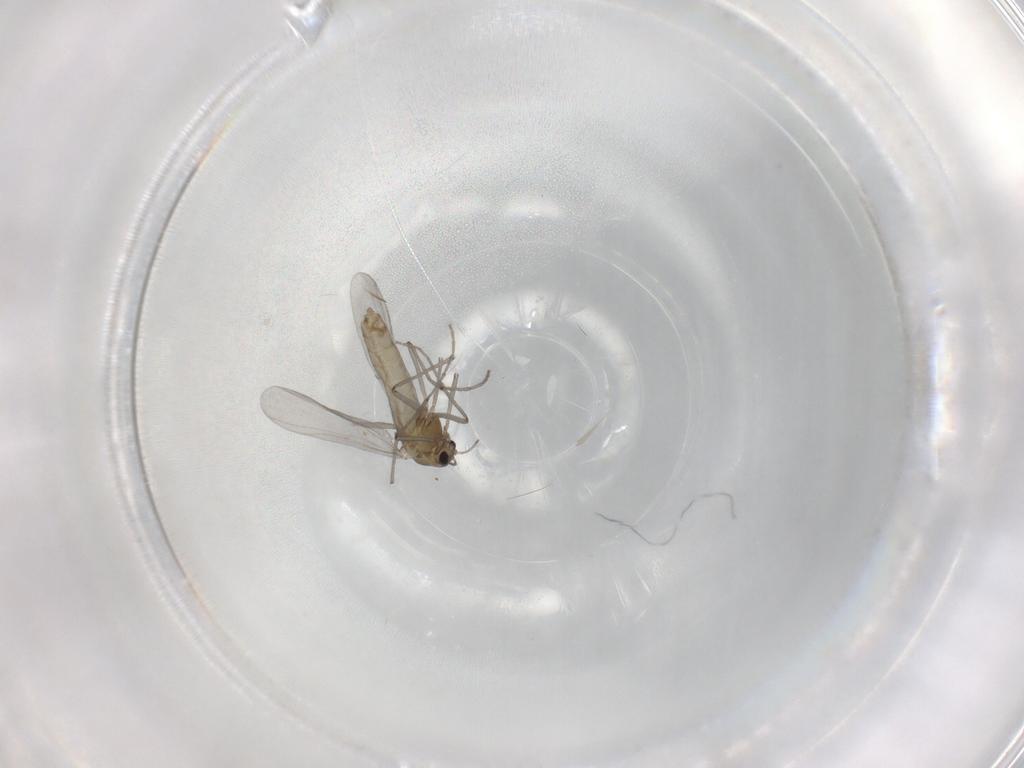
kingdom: Animalia
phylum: Arthropoda
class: Insecta
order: Diptera
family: Chironomidae
